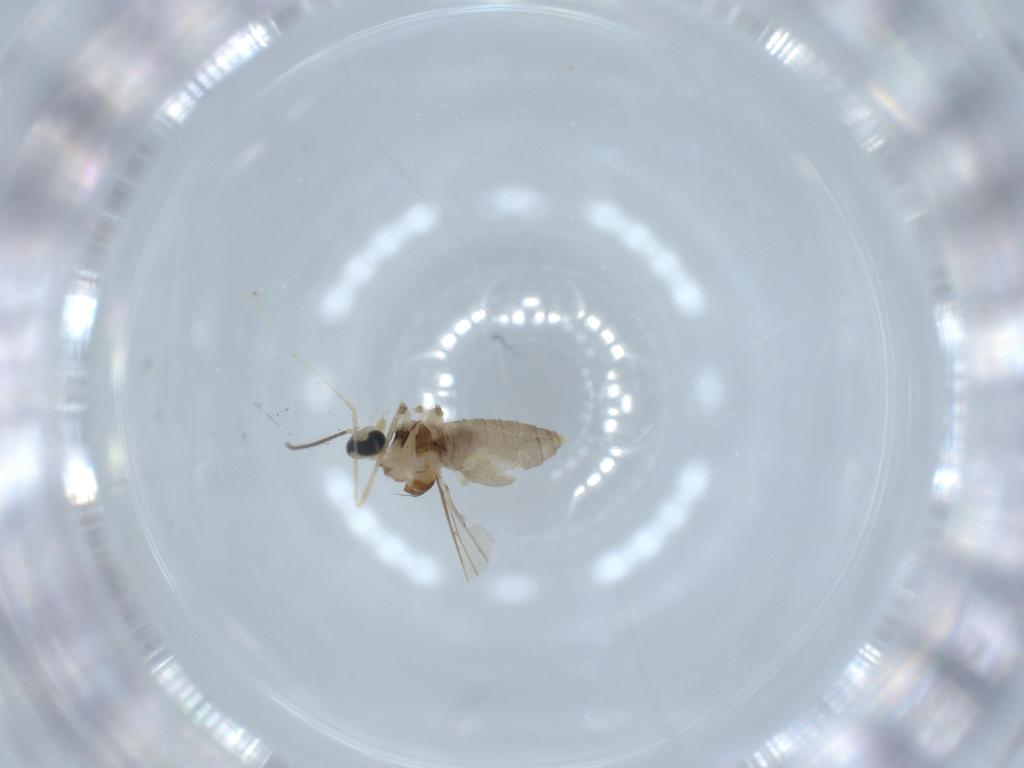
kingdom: Animalia
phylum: Arthropoda
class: Insecta
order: Diptera
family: Cecidomyiidae
